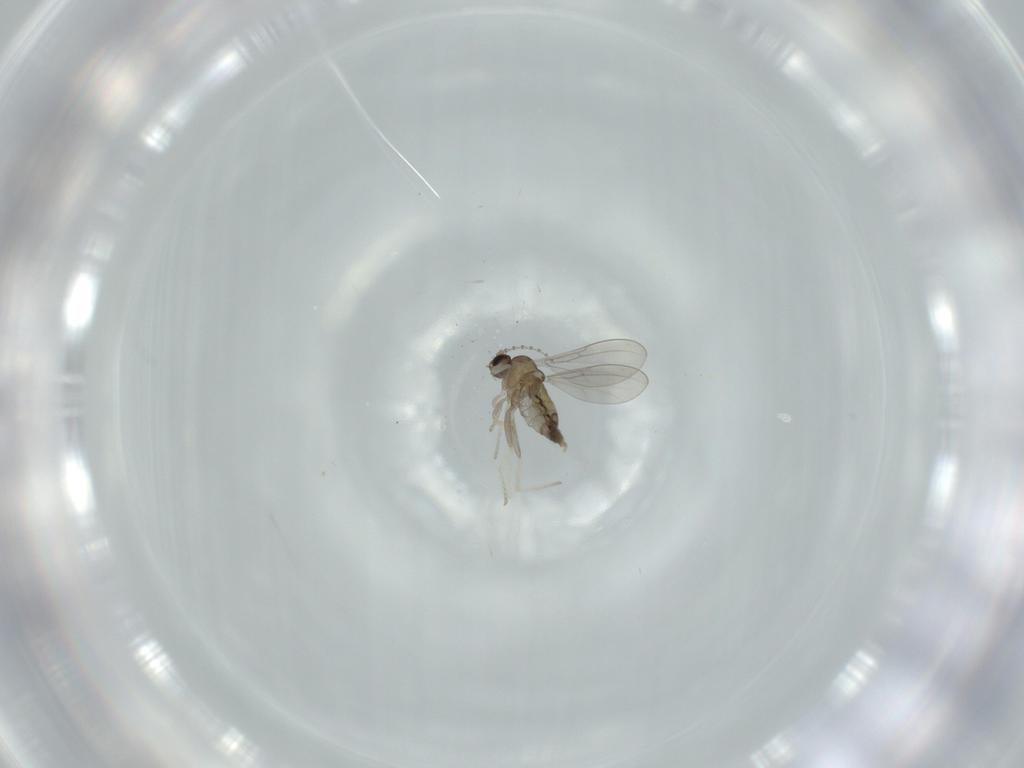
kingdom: Animalia
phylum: Arthropoda
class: Insecta
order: Diptera
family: Cecidomyiidae
